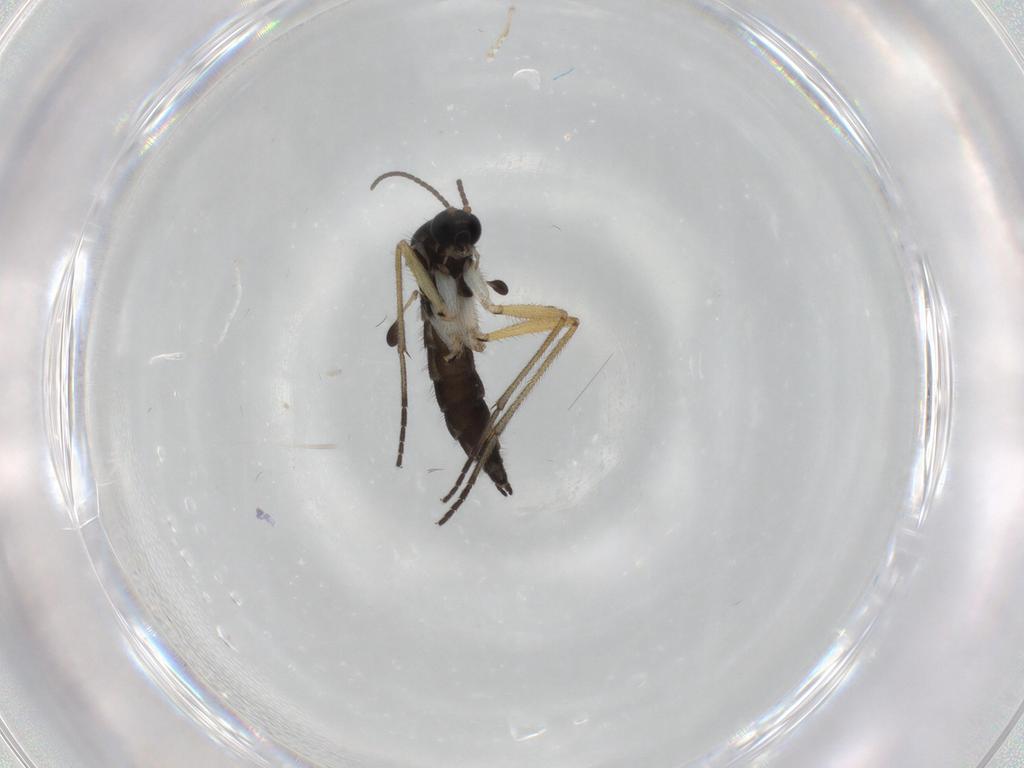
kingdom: Animalia
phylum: Arthropoda
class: Insecta
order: Diptera
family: Sciaridae
